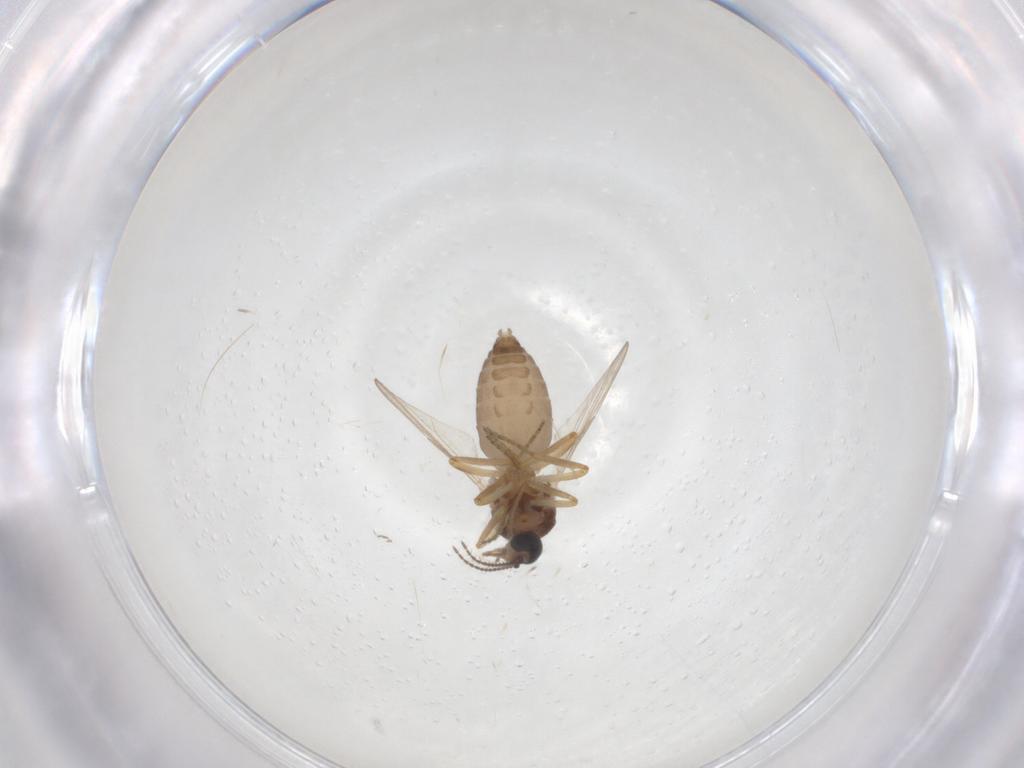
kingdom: Animalia
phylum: Arthropoda
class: Insecta
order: Diptera
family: Ceratopogonidae
